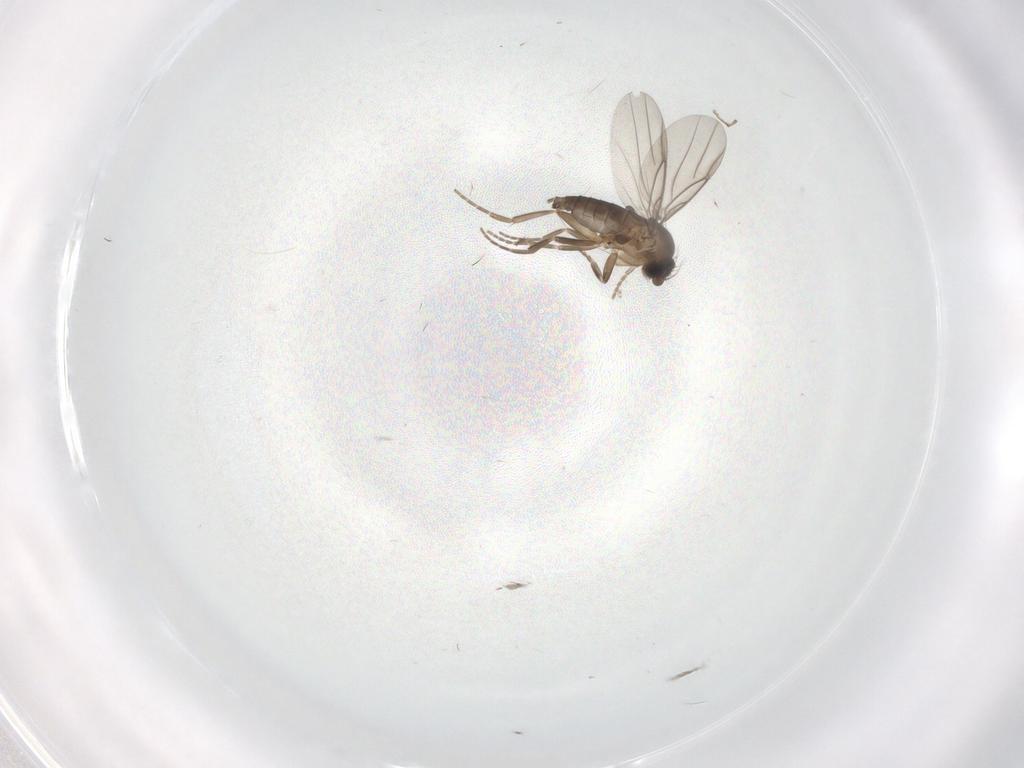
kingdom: Animalia
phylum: Arthropoda
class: Insecta
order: Diptera
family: Phoridae
